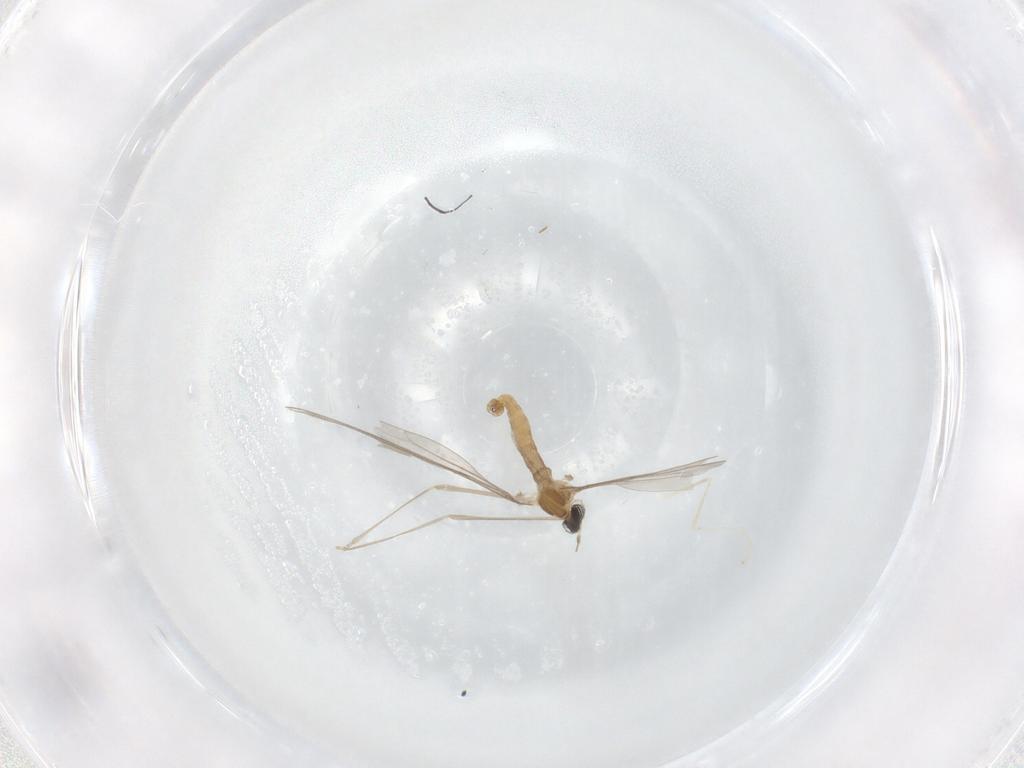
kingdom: Animalia
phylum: Arthropoda
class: Insecta
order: Diptera
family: Cecidomyiidae
